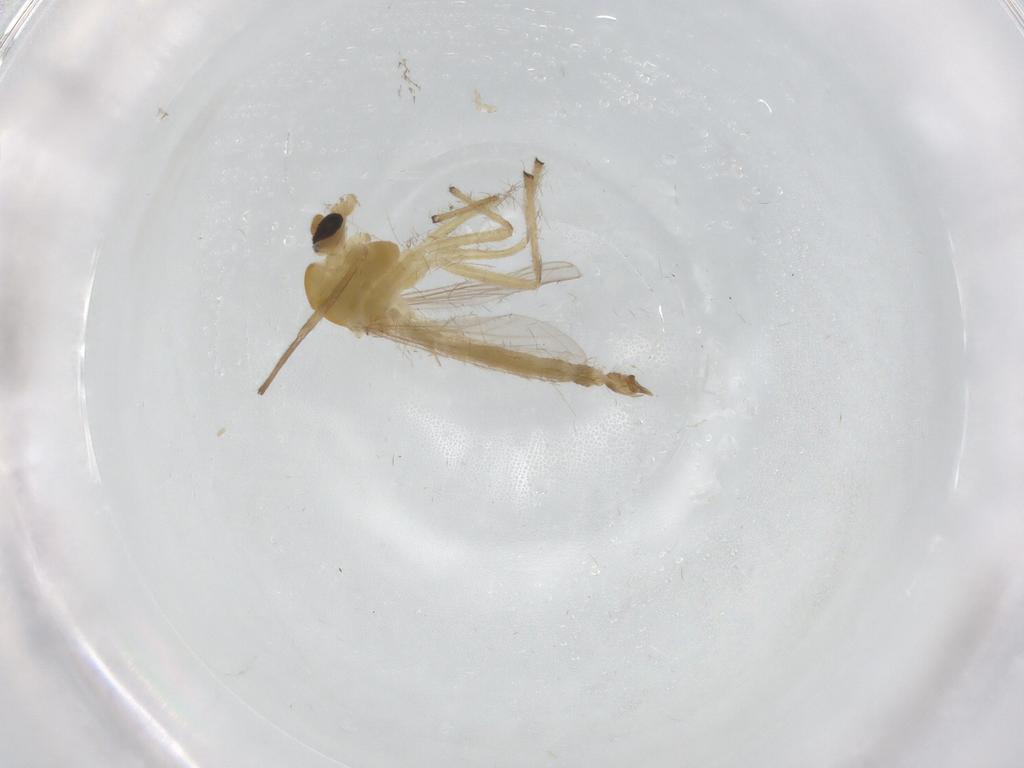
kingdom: Animalia
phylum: Arthropoda
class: Insecta
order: Diptera
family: Chironomidae
